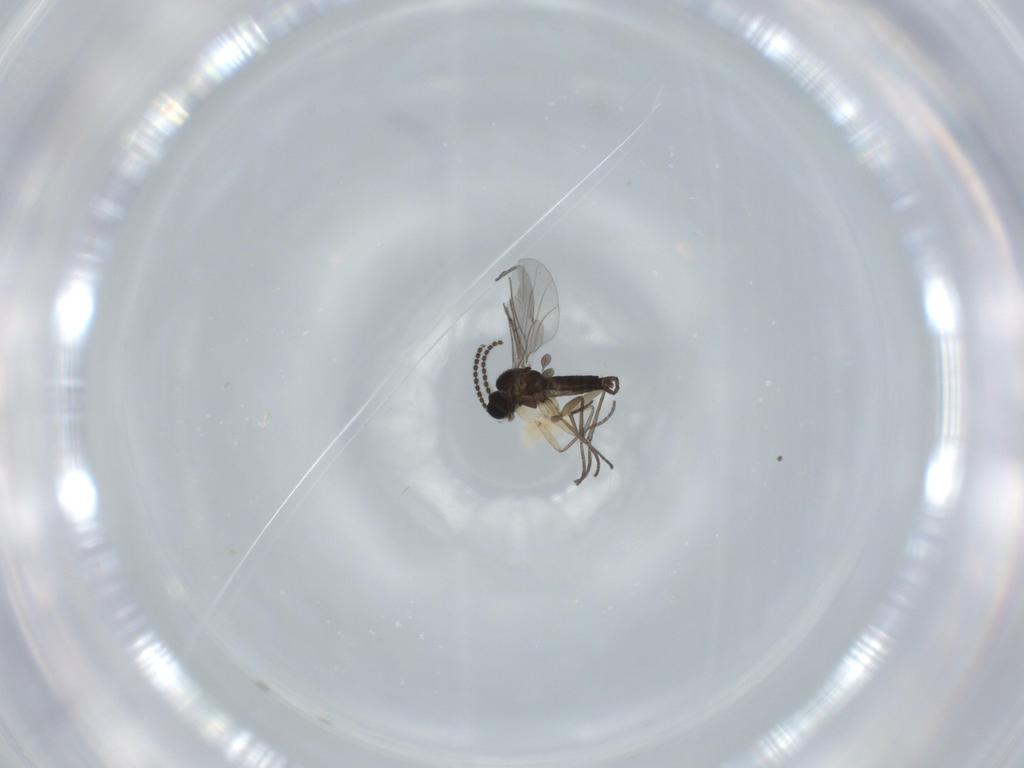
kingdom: Animalia
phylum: Arthropoda
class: Insecta
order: Diptera
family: Sciaridae
